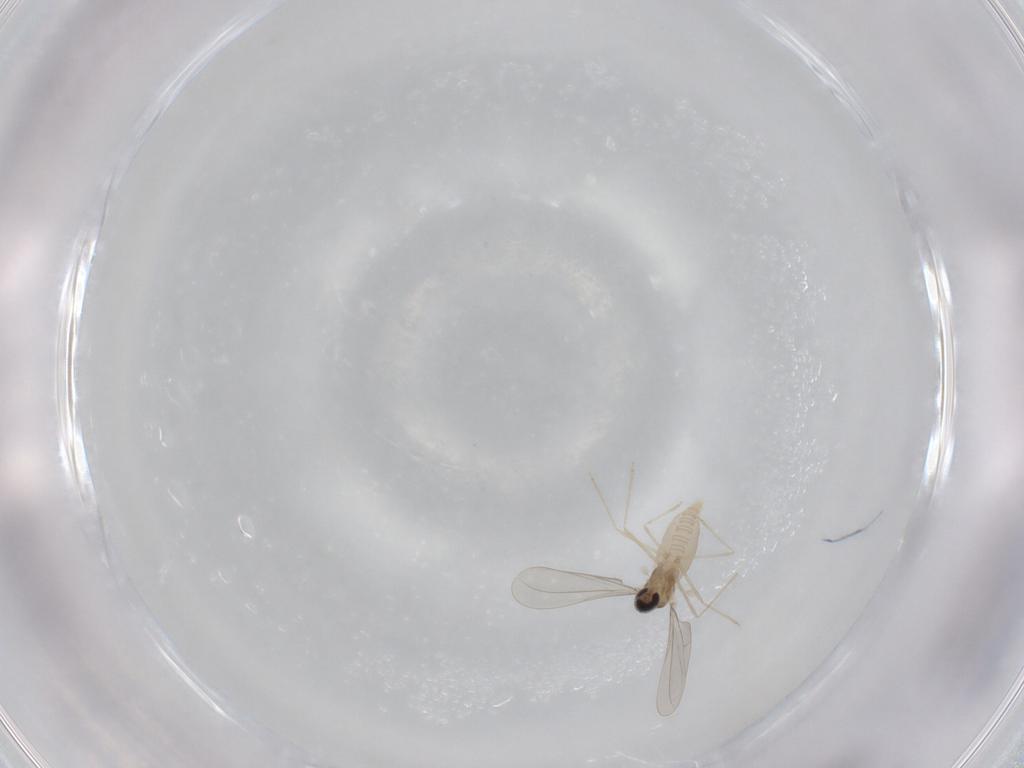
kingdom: Animalia
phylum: Arthropoda
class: Insecta
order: Diptera
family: Cecidomyiidae
